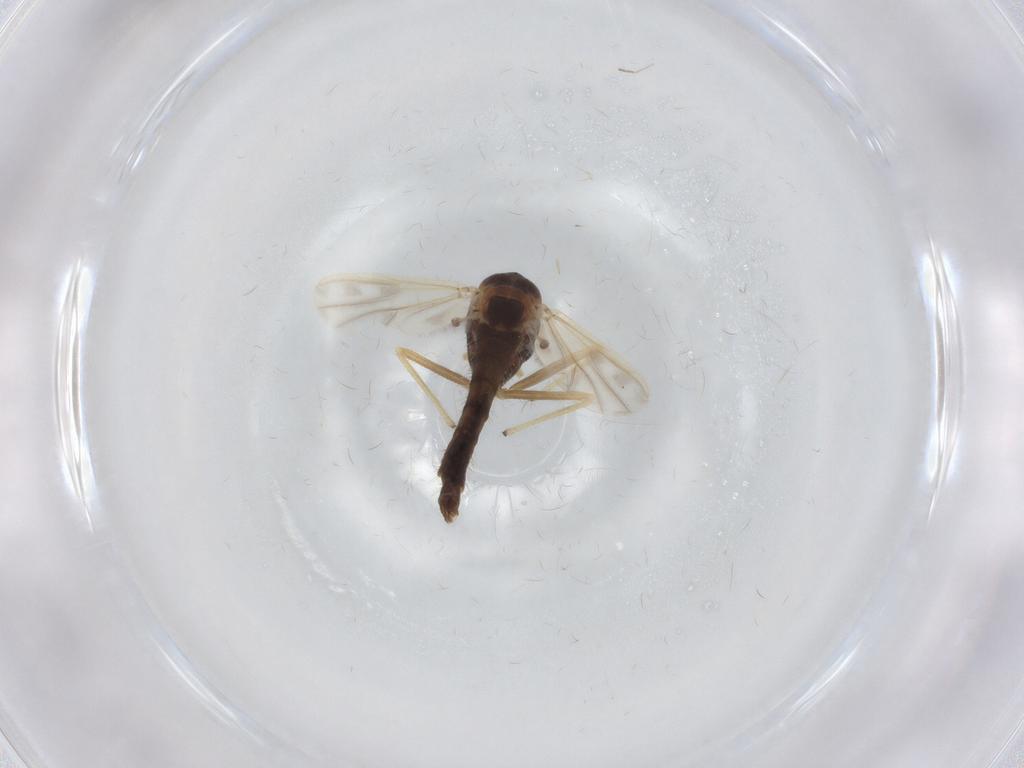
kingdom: Animalia
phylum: Arthropoda
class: Insecta
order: Diptera
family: Chironomidae
